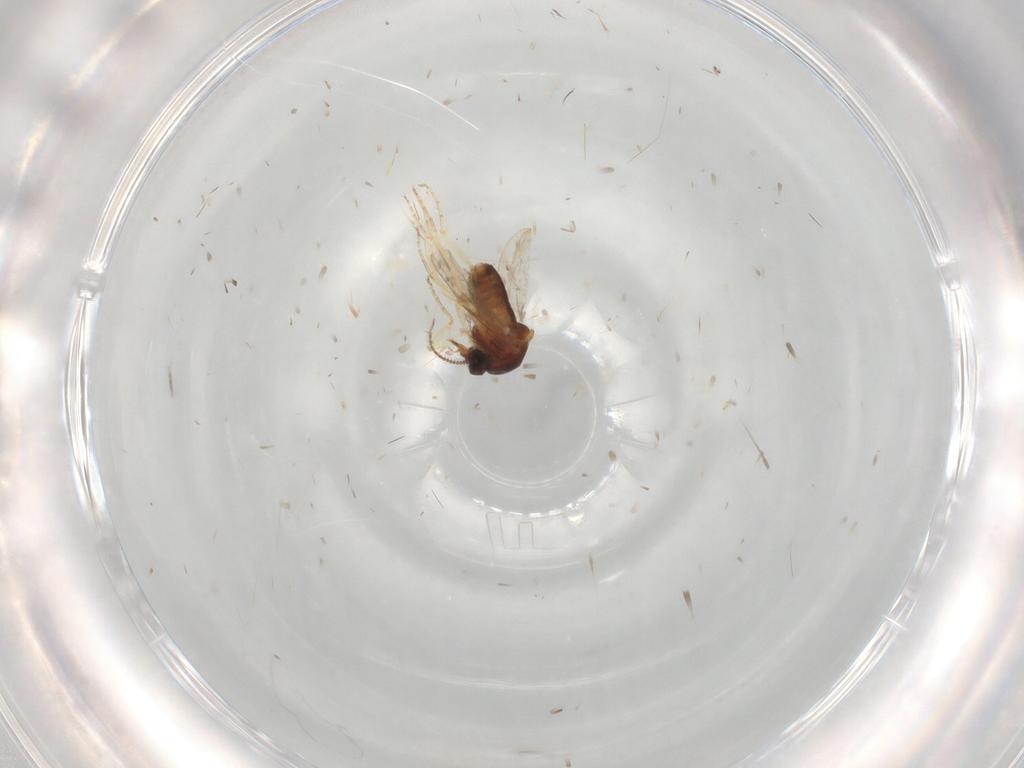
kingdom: Animalia
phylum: Arthropoda
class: Insecta
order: Diptera
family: Ceratopogonidae
